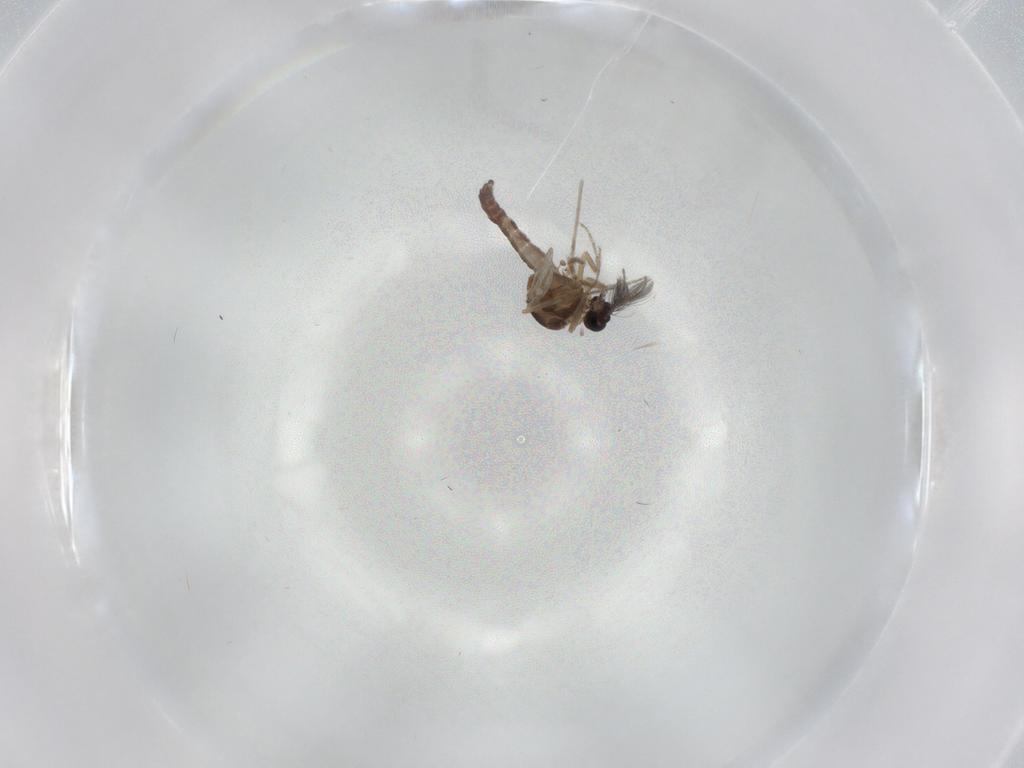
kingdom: Animalia
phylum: Arthropoda
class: Insecta
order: Diptera
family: Ceratopogonidae
